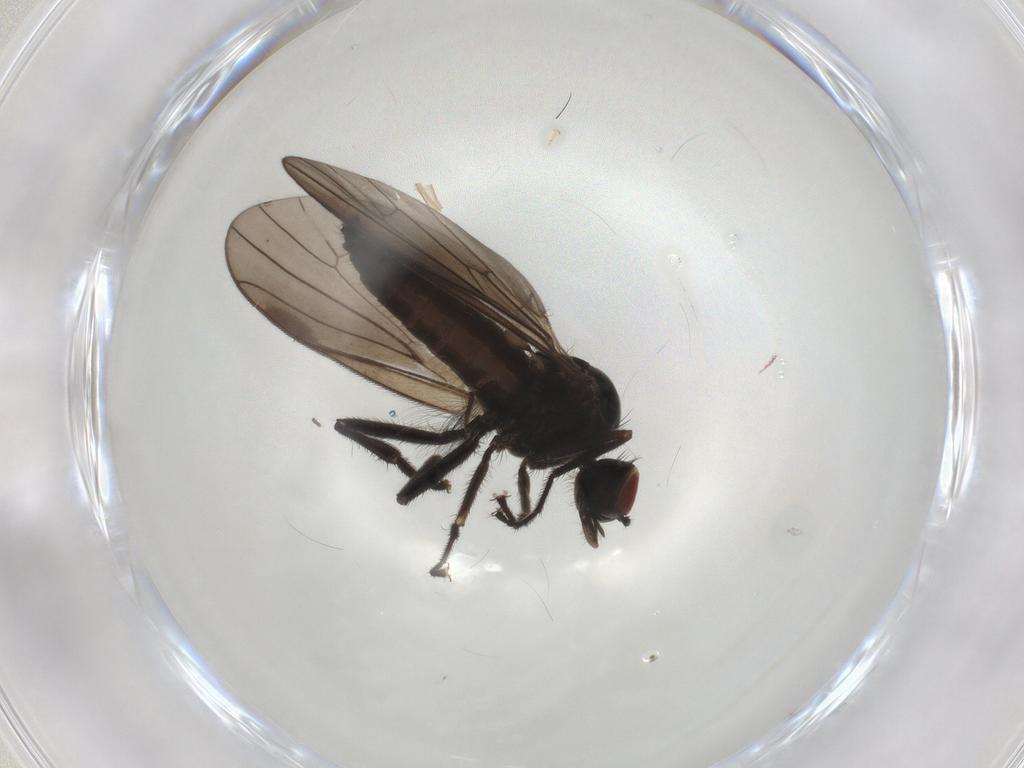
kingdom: Animalia
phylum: Arthropoda
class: Insecta
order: Diptera
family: Hybotidae
